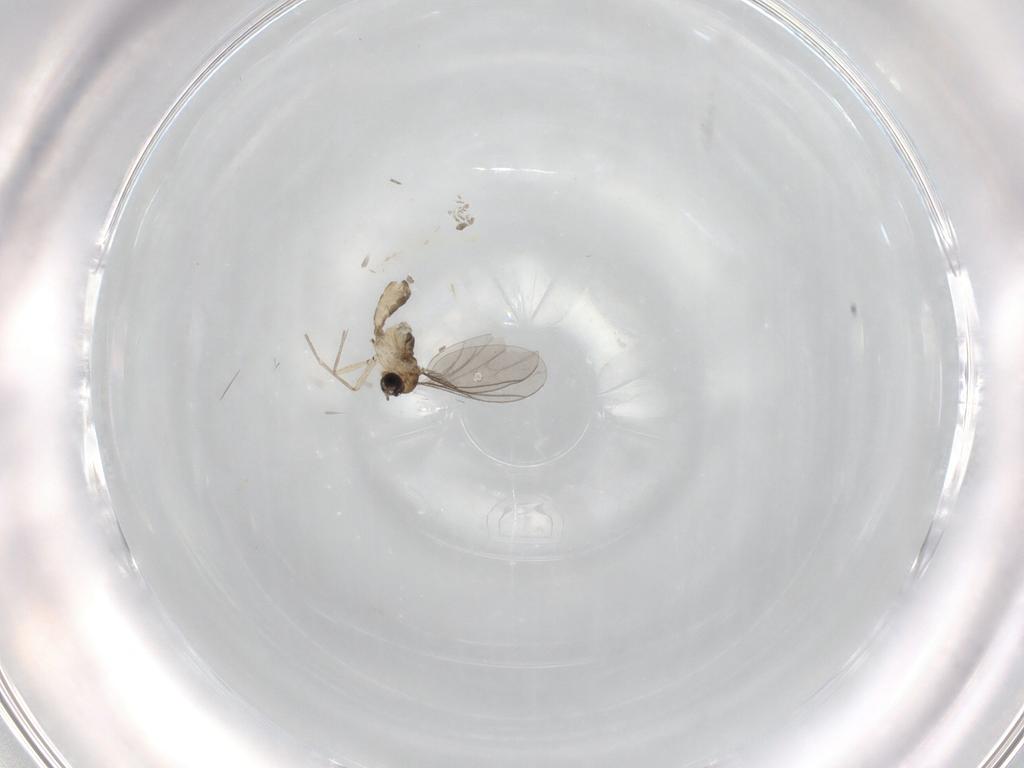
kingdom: Animalia
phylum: Arthropoda
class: Insecta
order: Diptera
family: Sciaridae
